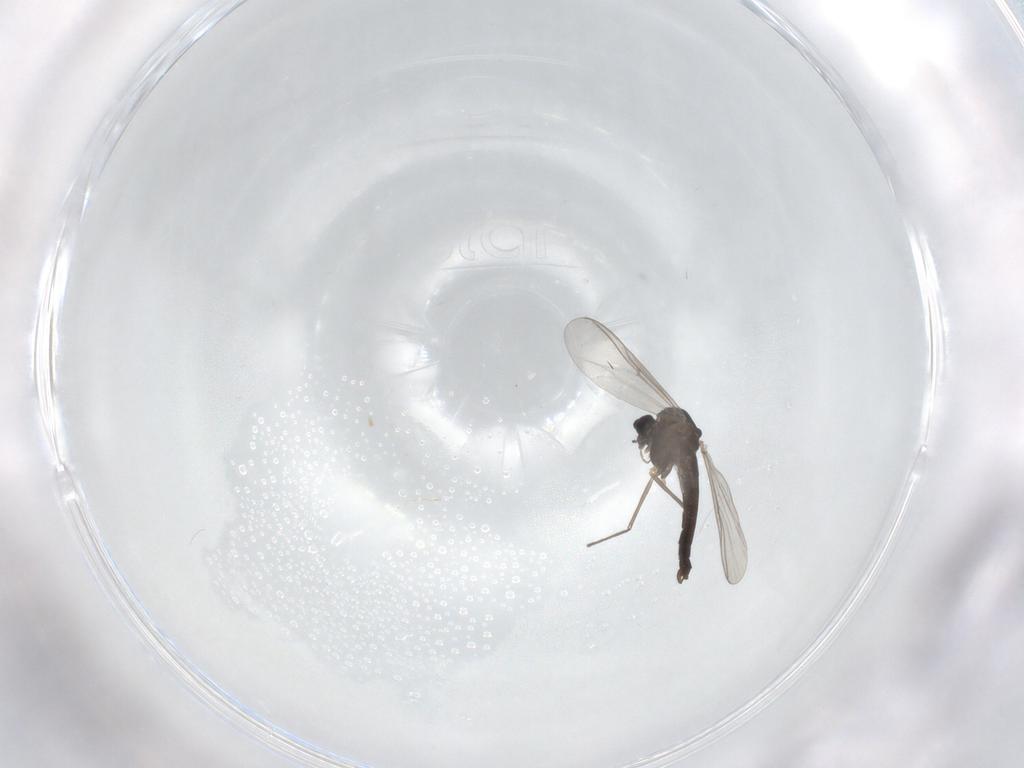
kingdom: Animalia
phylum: Arthropoda
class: Insecta
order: Diptera
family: Chironomidae
